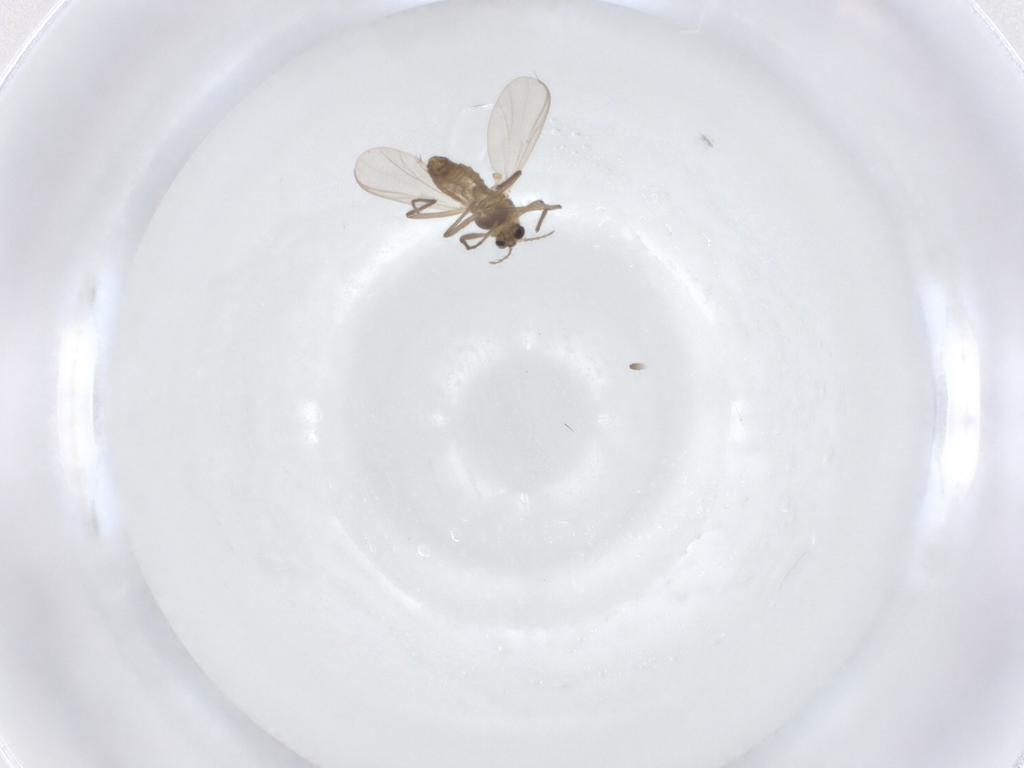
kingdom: Animalia
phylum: Arthropoda
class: Insecta
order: Diptera
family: Chironomidae
